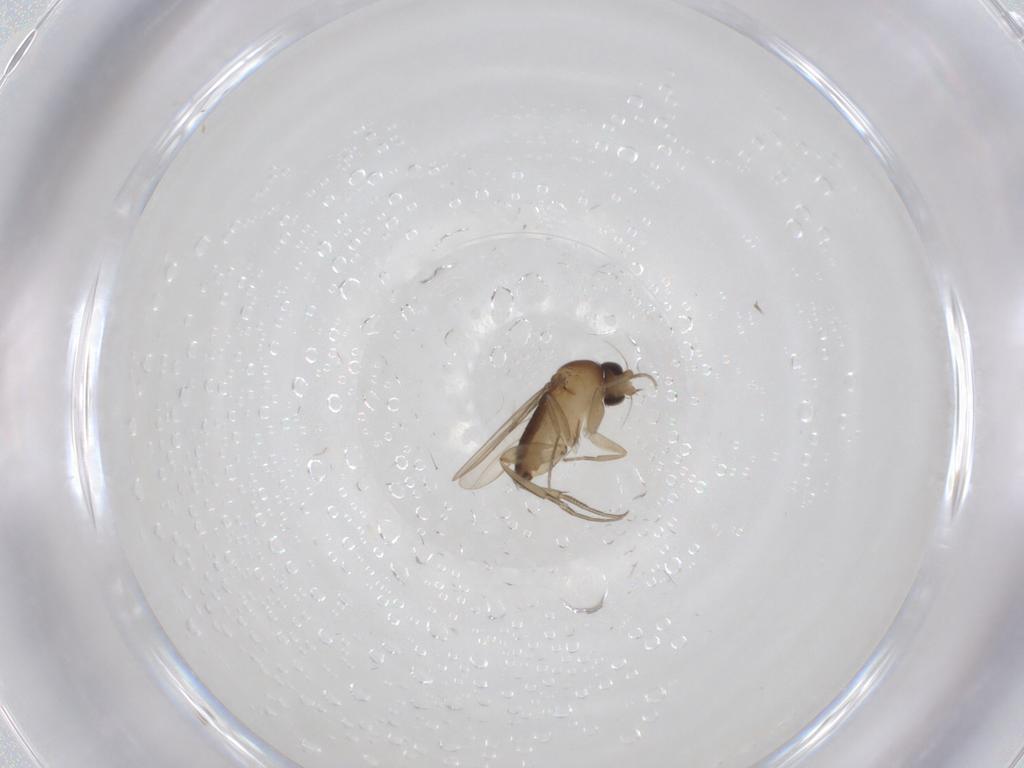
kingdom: Animalia
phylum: Arthropoda
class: Insecta
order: Diptera
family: Phoridae
